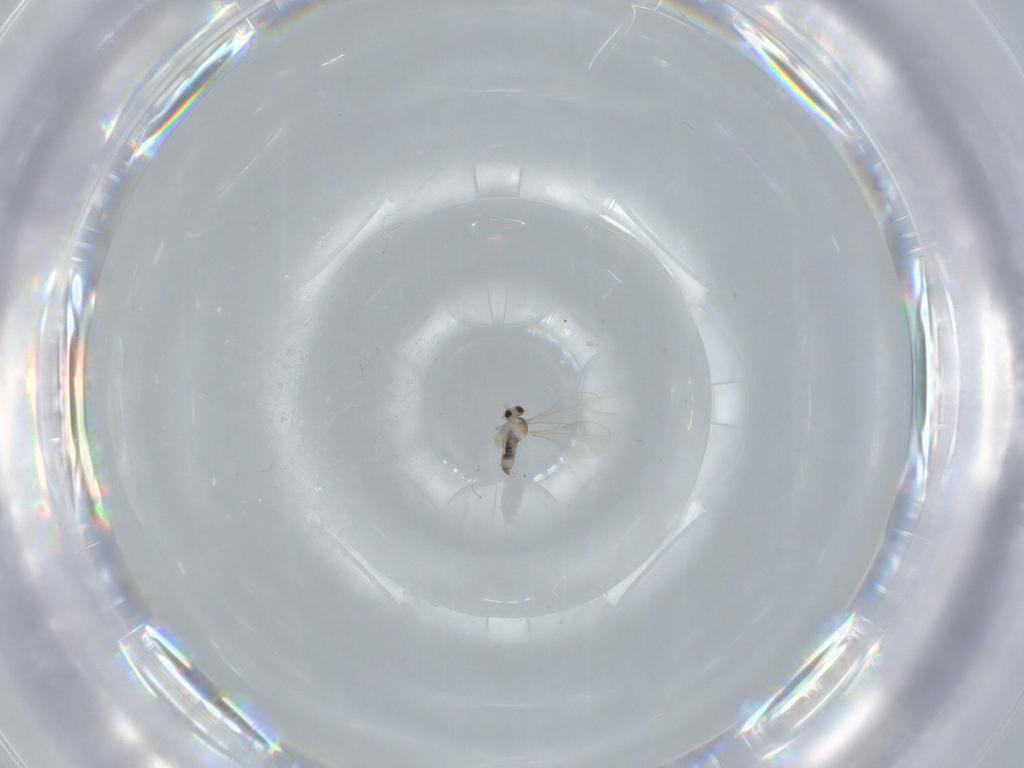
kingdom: Animalia
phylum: Arthropoda
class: Insecta
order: Diptera
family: Cecidomyiidae
